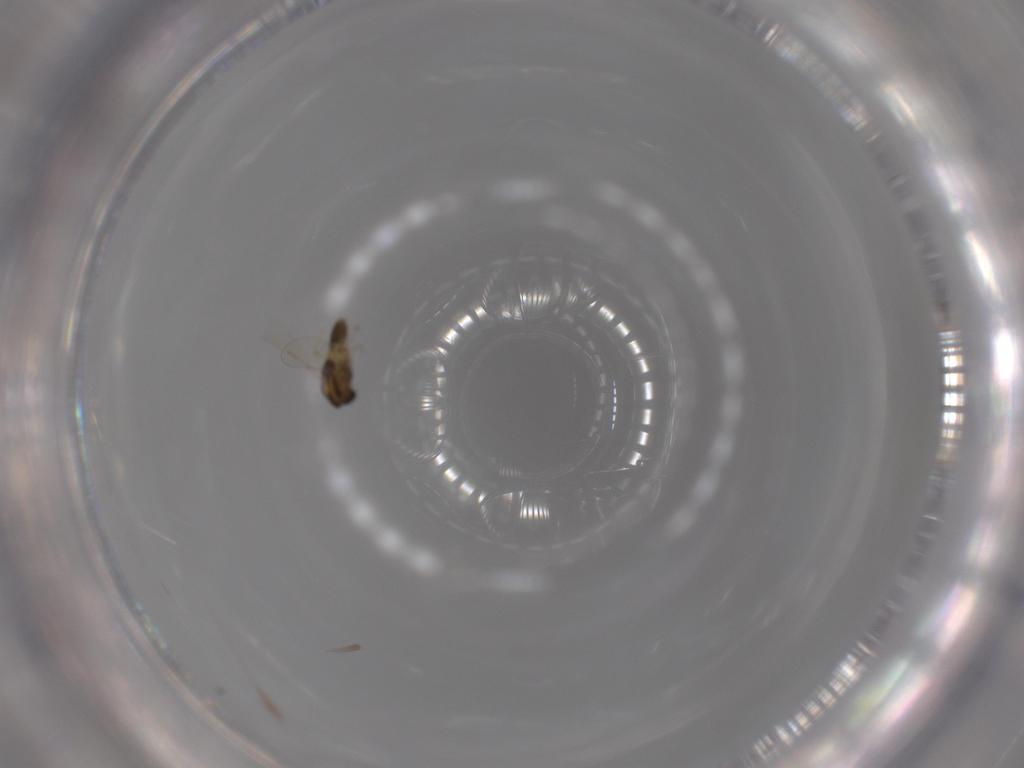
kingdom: Animalia
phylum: Arthropoda
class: Insecta
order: Diptera
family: Chironomidae
